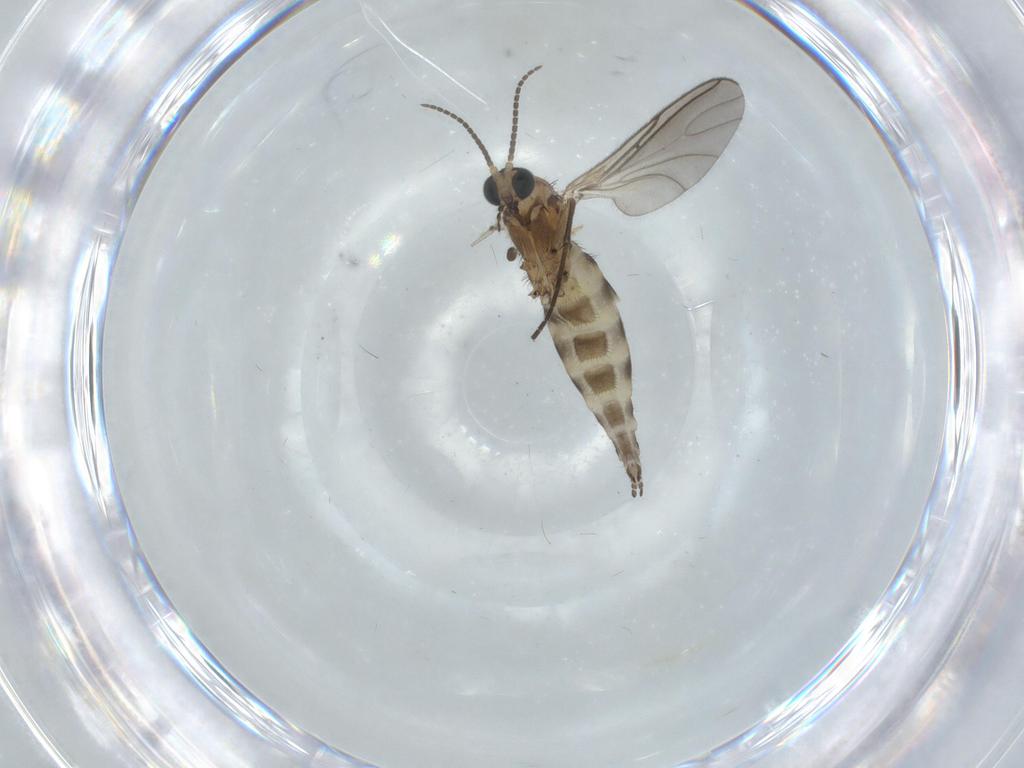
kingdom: Animalia
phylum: Arthropoda
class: Insecta
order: Diptera
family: Sciaridae
